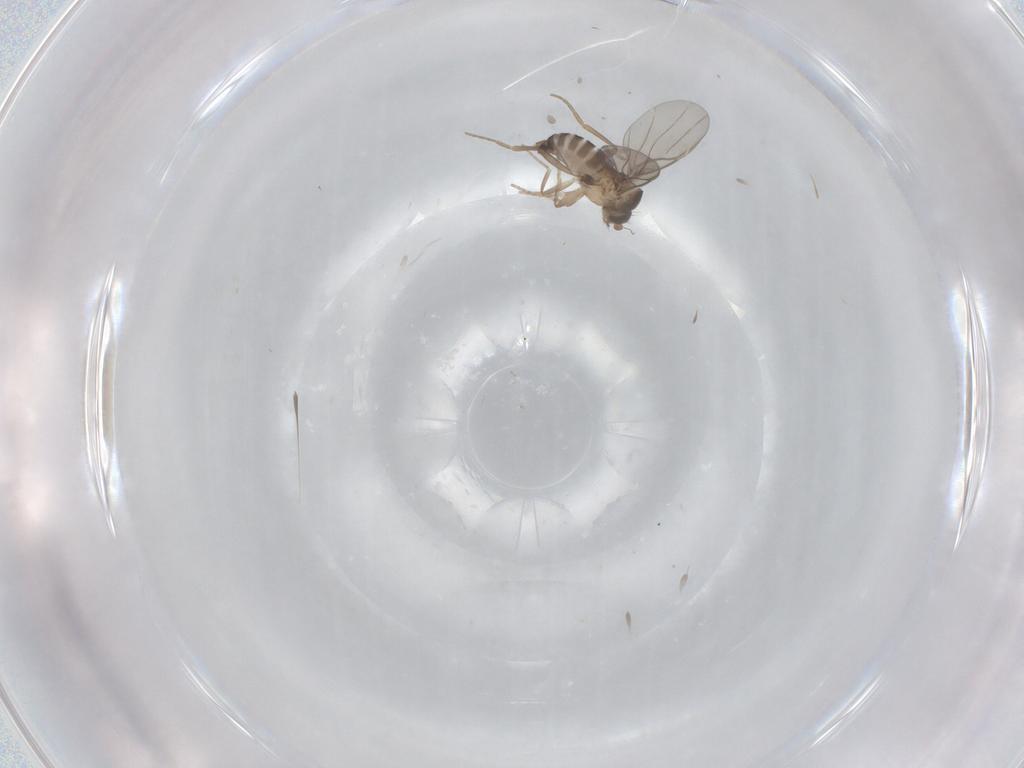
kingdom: Animalia
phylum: Arthropoda
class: Insecta
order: Diptera
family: Phoridae
